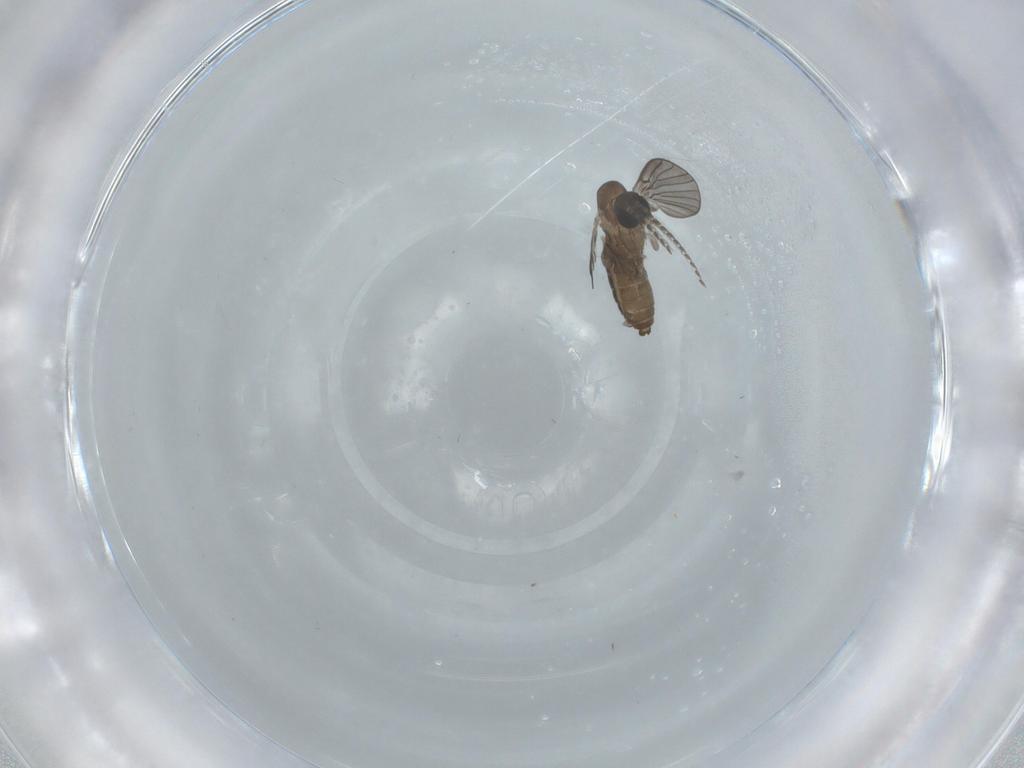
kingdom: Animalia
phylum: Arthropoda
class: Insecta
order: Diptera
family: Psychodidae
